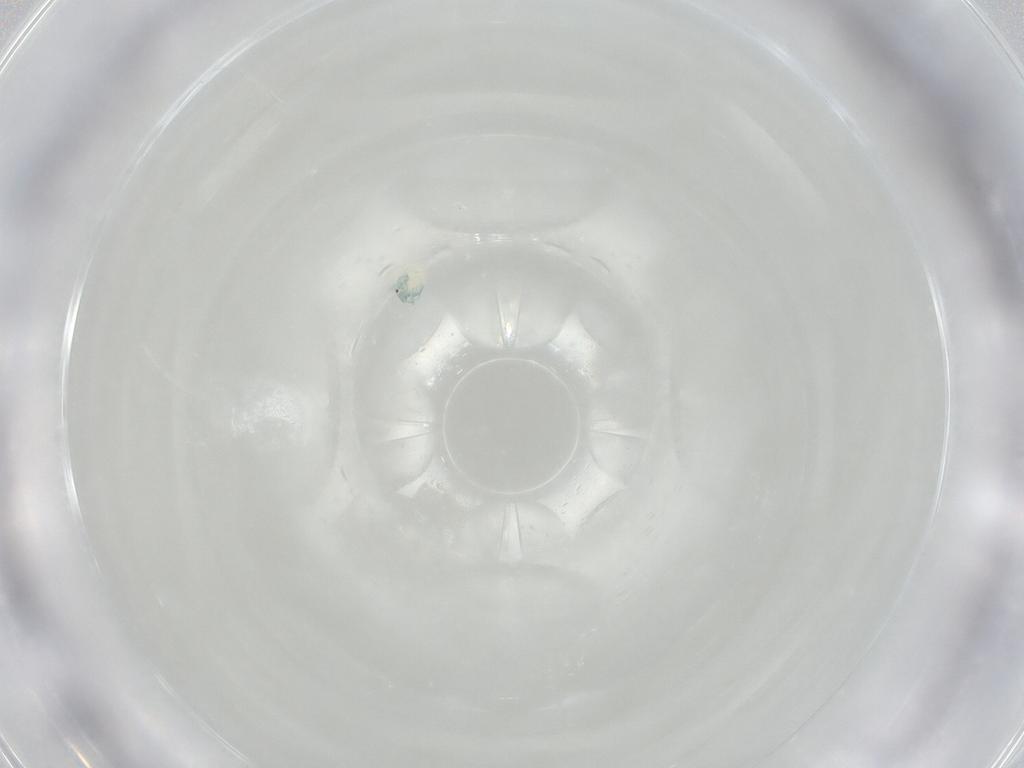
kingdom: Animalia
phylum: Arthropoda
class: Arachnida
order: Trombidiformes
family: Arrenuridae
